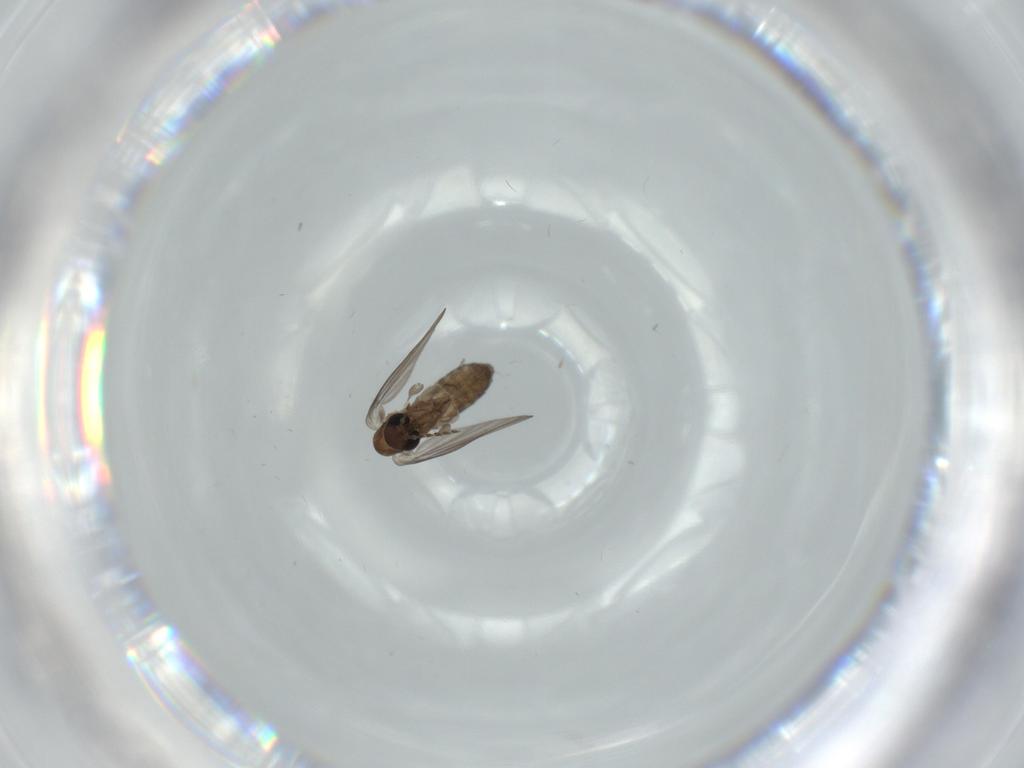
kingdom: Animalia
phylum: Arthropoda
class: Insecta
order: Diptera
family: Psychodidae
